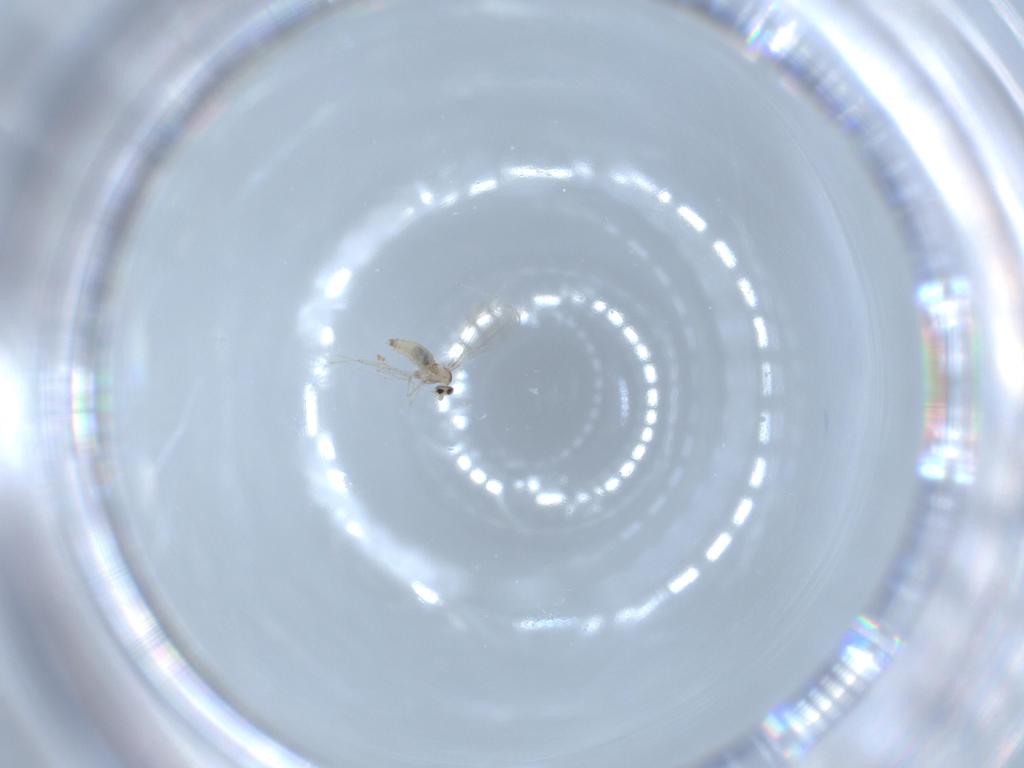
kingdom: Animalia
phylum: Arthropoda
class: Insecta
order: Diptera
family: Cecidomyiidae
